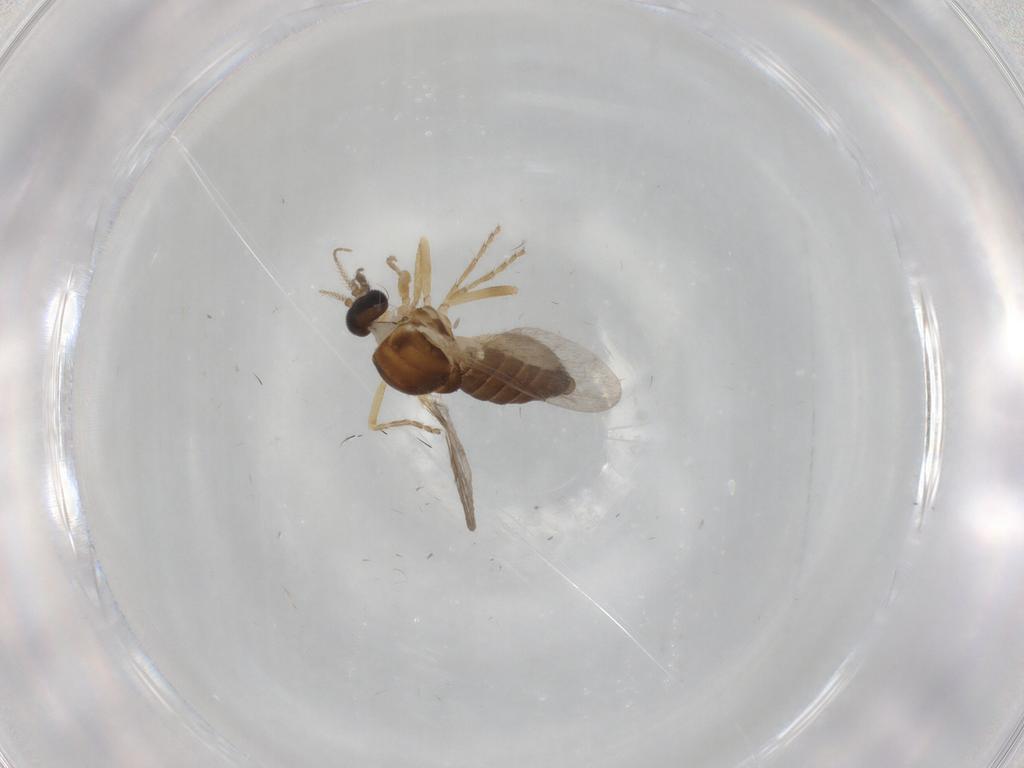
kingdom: Animalia
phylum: Arthropoda
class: Insecta
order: Diptera
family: Ceratopogonidae
